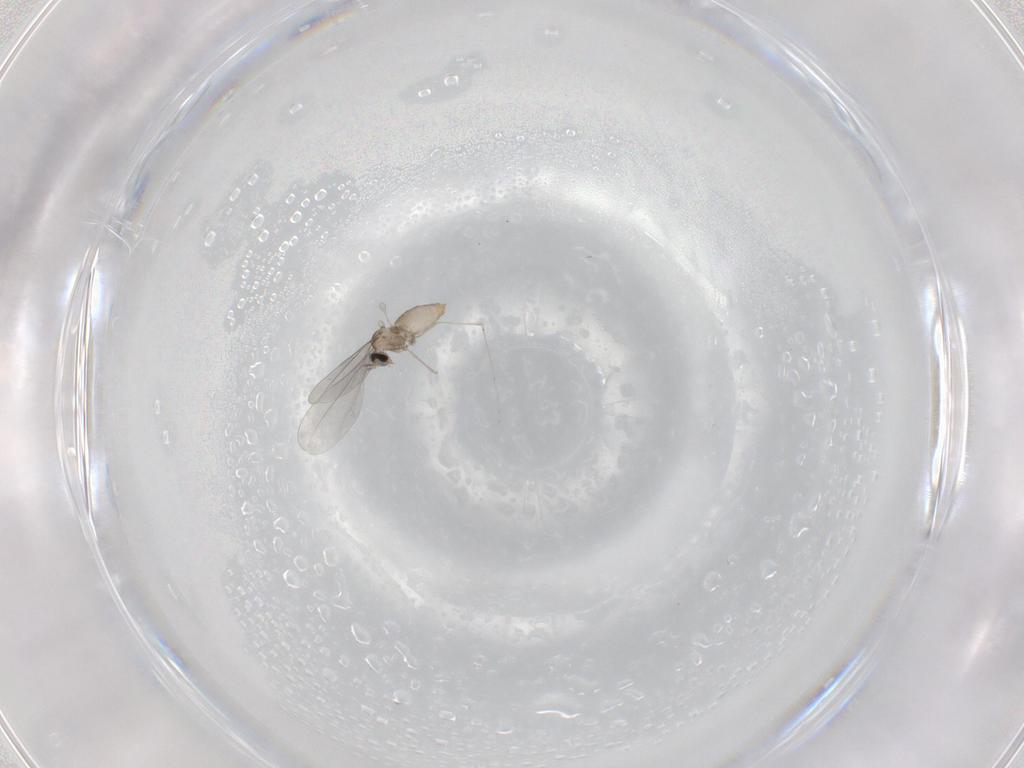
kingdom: Animalia
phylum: Arthropoda
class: Insecta
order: Diptera
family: Cecidomyiidae
